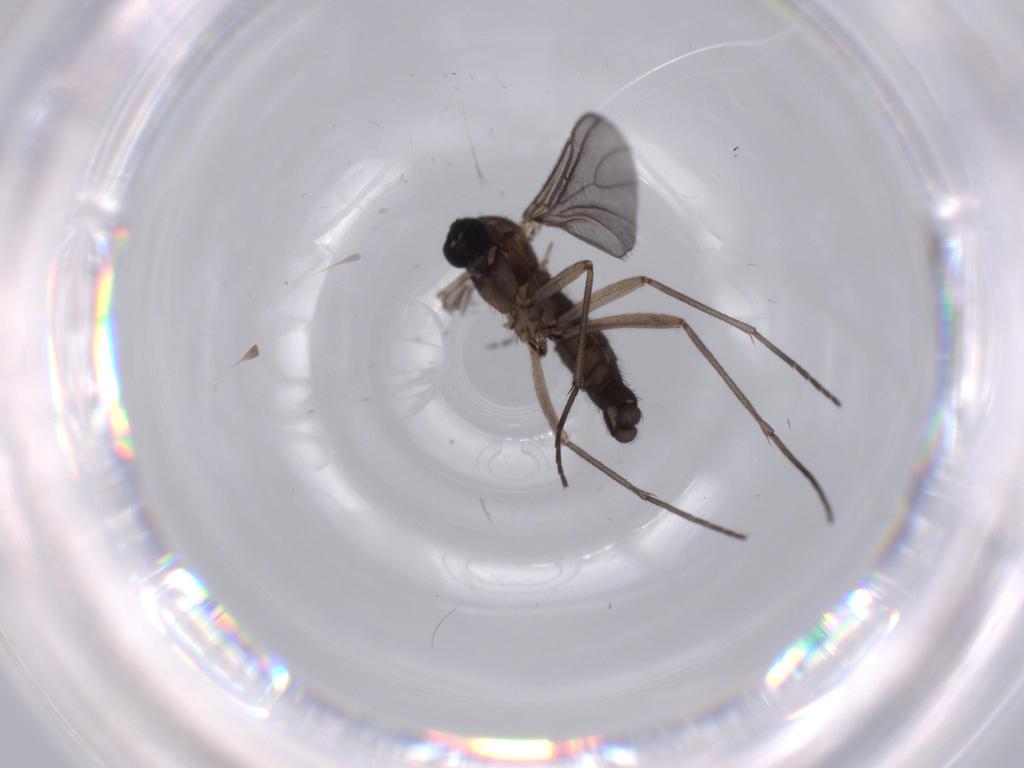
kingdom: Animalia
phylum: Arthropoda
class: Insecta
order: Diptera
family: Sciaridae
